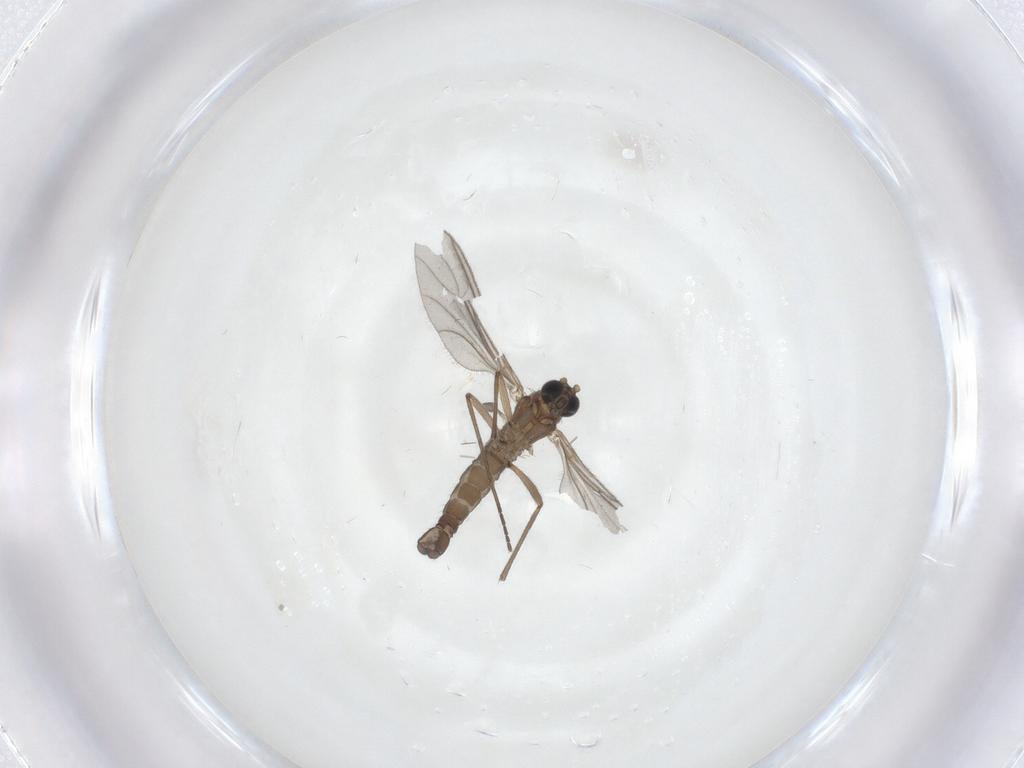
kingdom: Animalia
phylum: Arthropoda
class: Insecta
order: Diptera
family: Sciaridae
